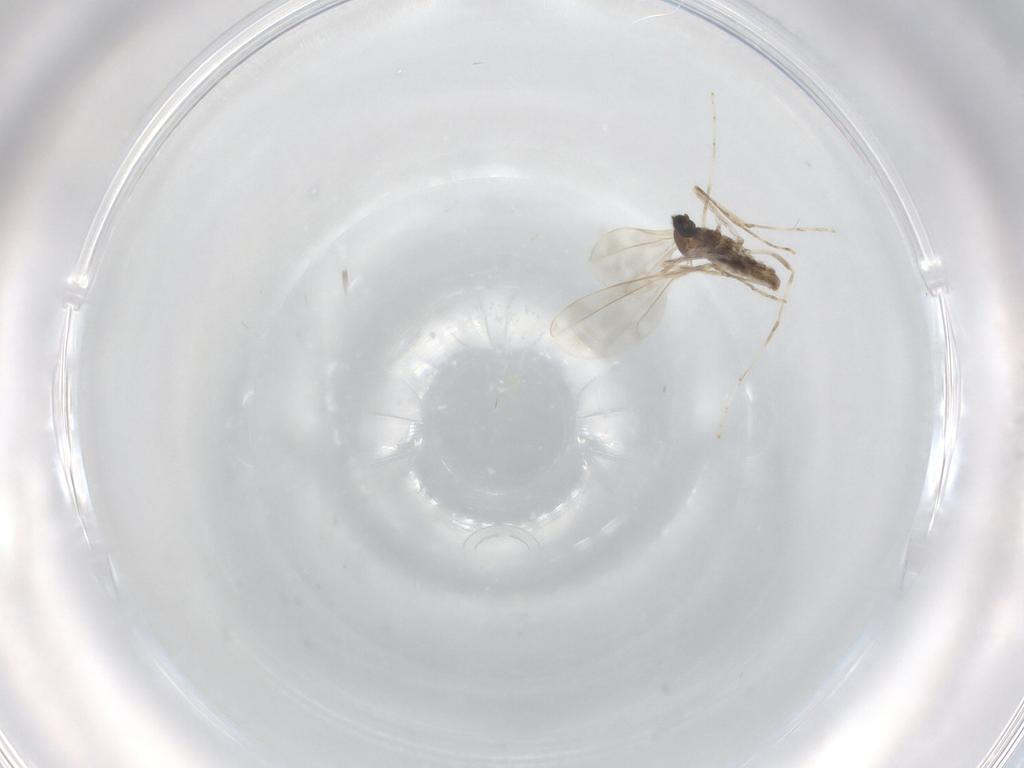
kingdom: Animalia
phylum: Arthropoda
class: Insecta
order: Diptera
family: Cecidomyiidae
